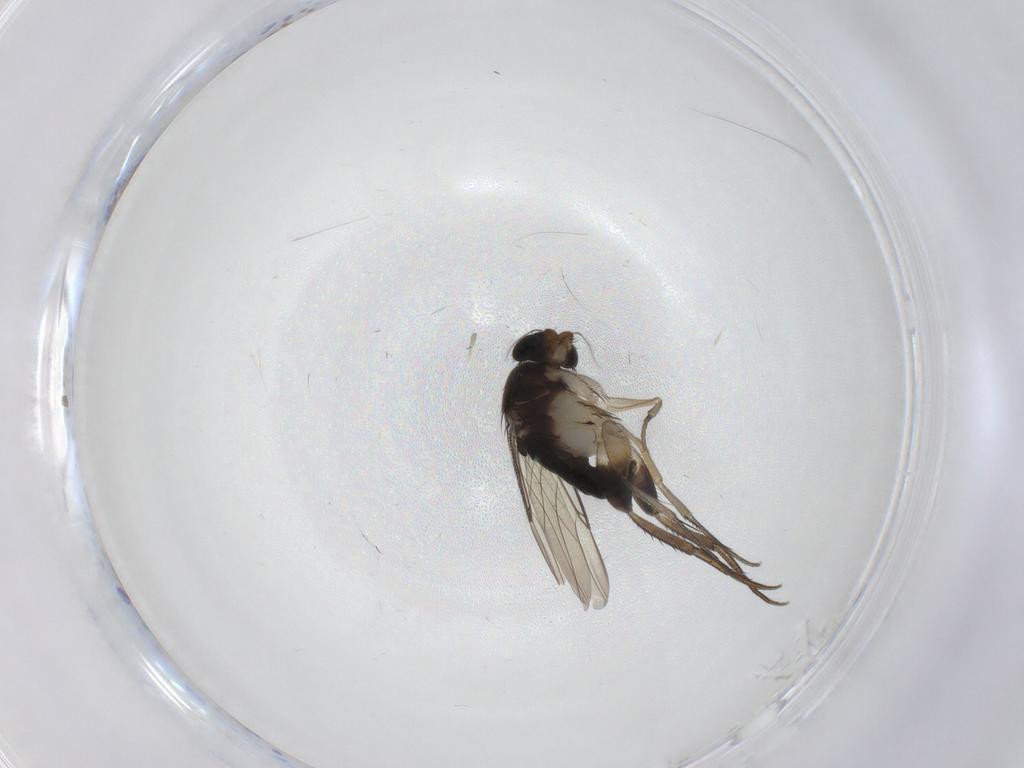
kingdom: Animalia
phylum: Arthropoda
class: Insecta
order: Diptera
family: Phoridae
